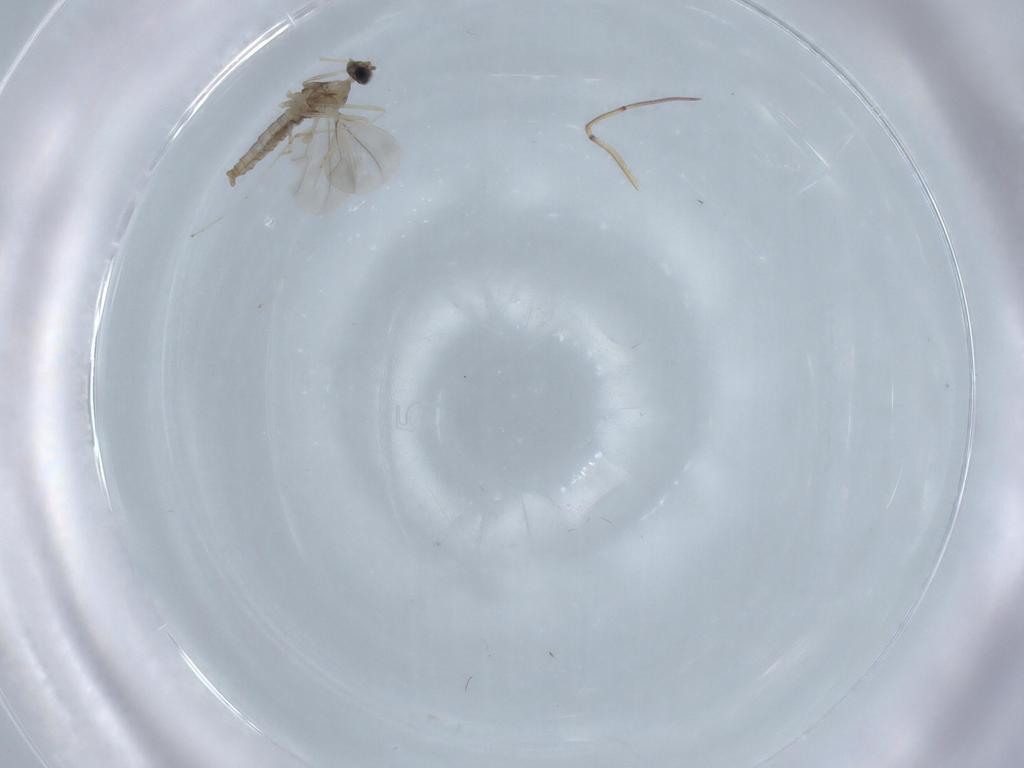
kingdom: Animalia
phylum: Arthropoda
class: Insecta
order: Diptera
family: Cecidomyiidae
